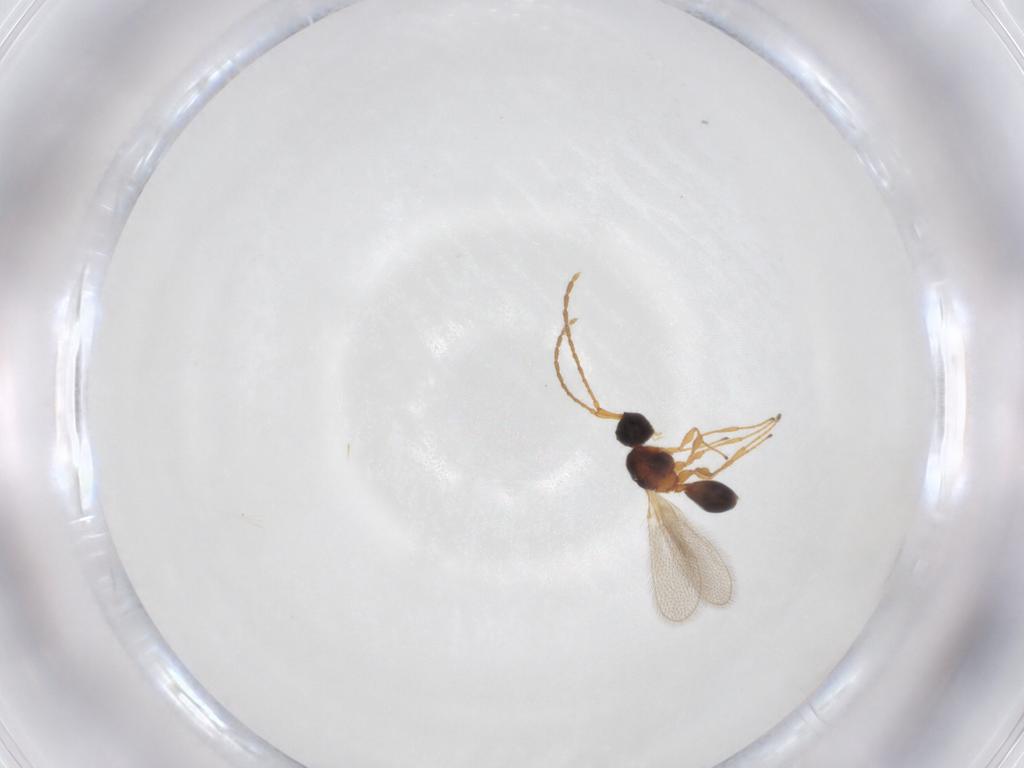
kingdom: Animalia
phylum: Arthropoda
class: Insecta
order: Hymenoptera
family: Diapriidae
